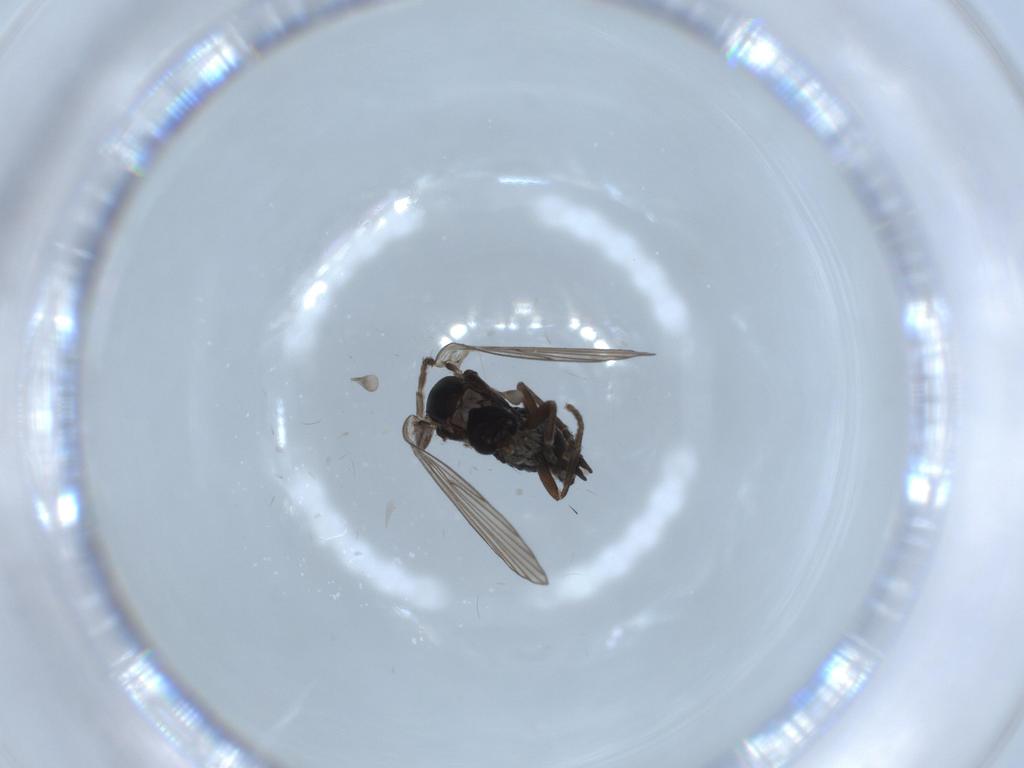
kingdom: Animalia
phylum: Arthropoda
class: Insecta
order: Diptera
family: Psychodidae
